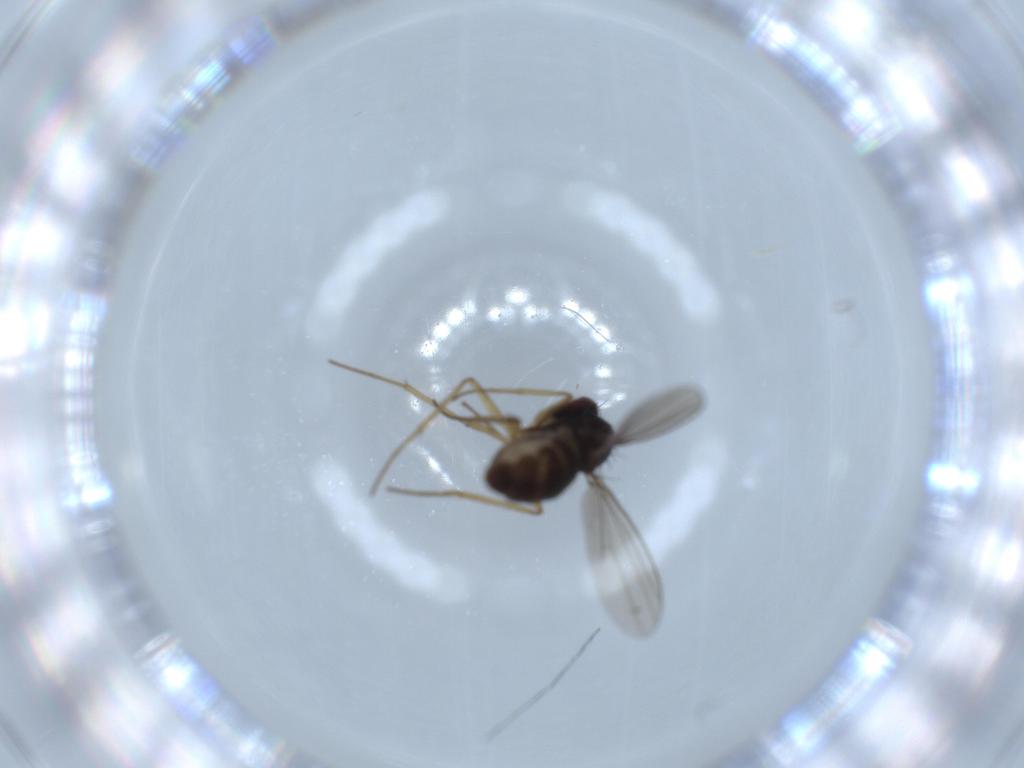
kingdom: Animalia
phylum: Arthropoda
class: Insecta
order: Diptera
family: Dolichopodidae
